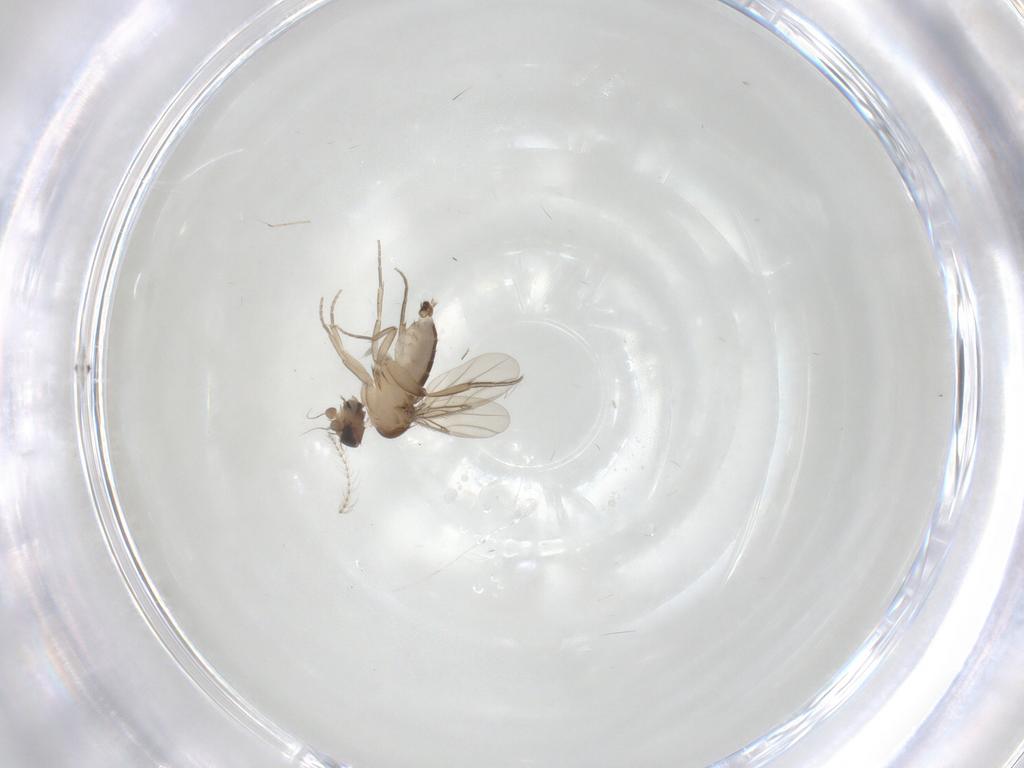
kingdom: Animalia
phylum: Arthropoda
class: Insecta
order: Diptera
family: Phoridae
